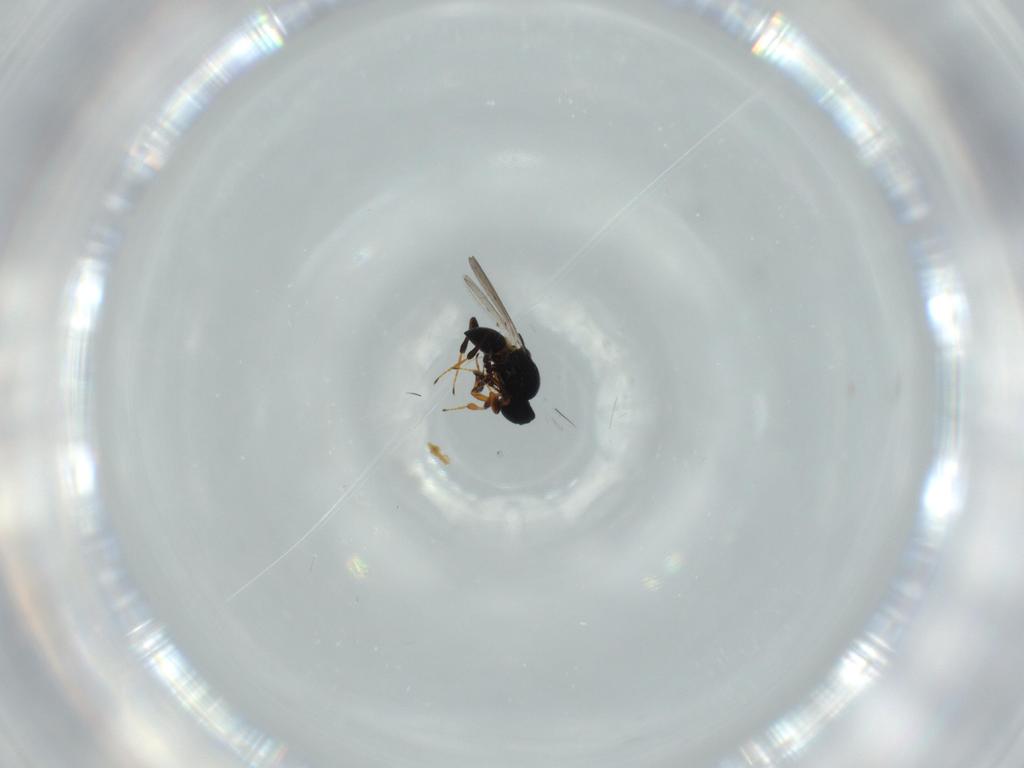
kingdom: Animalia
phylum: Arthropoda
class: Insecta
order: Hymenoptera
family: Platygastridae
